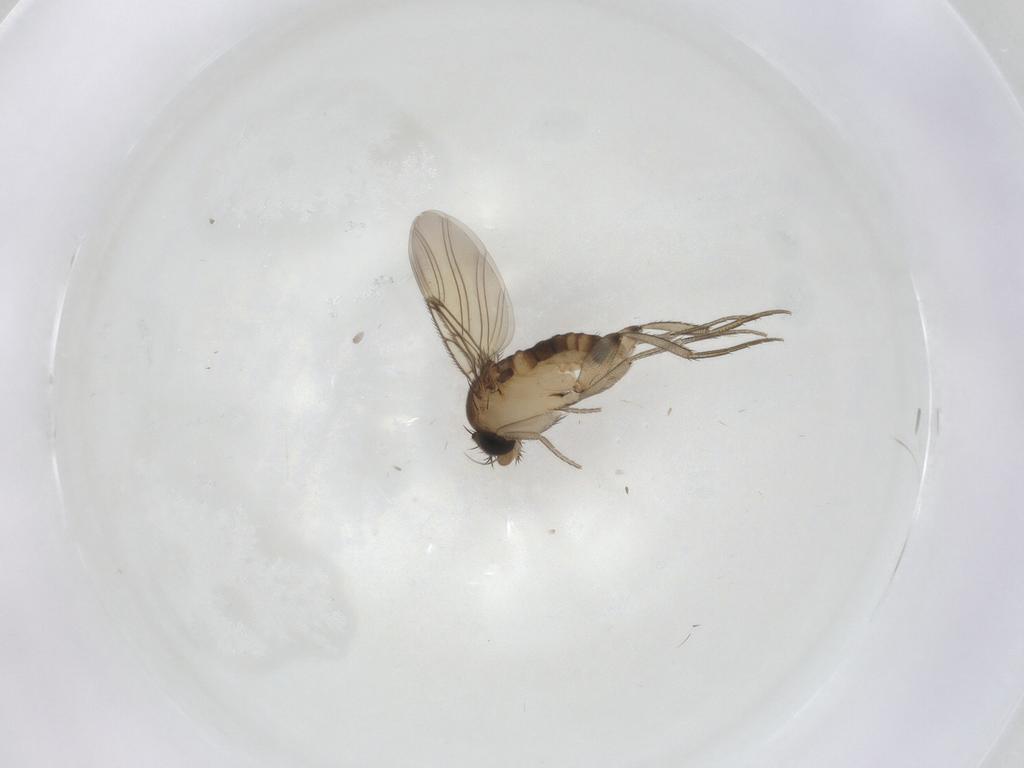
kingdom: Animalia
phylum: Arthropoda
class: Insecta
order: Diptera
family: Phoridae
